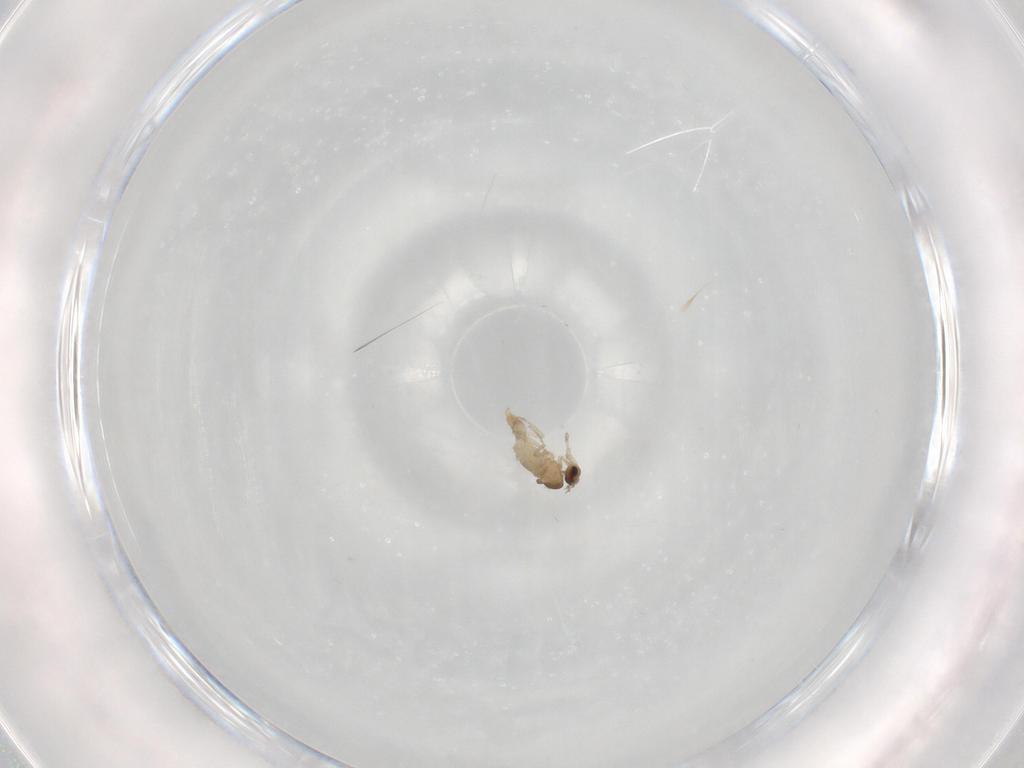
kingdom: Animalia
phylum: Arthropoda
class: Insecta
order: Diptera
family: Cecidomyiidae
